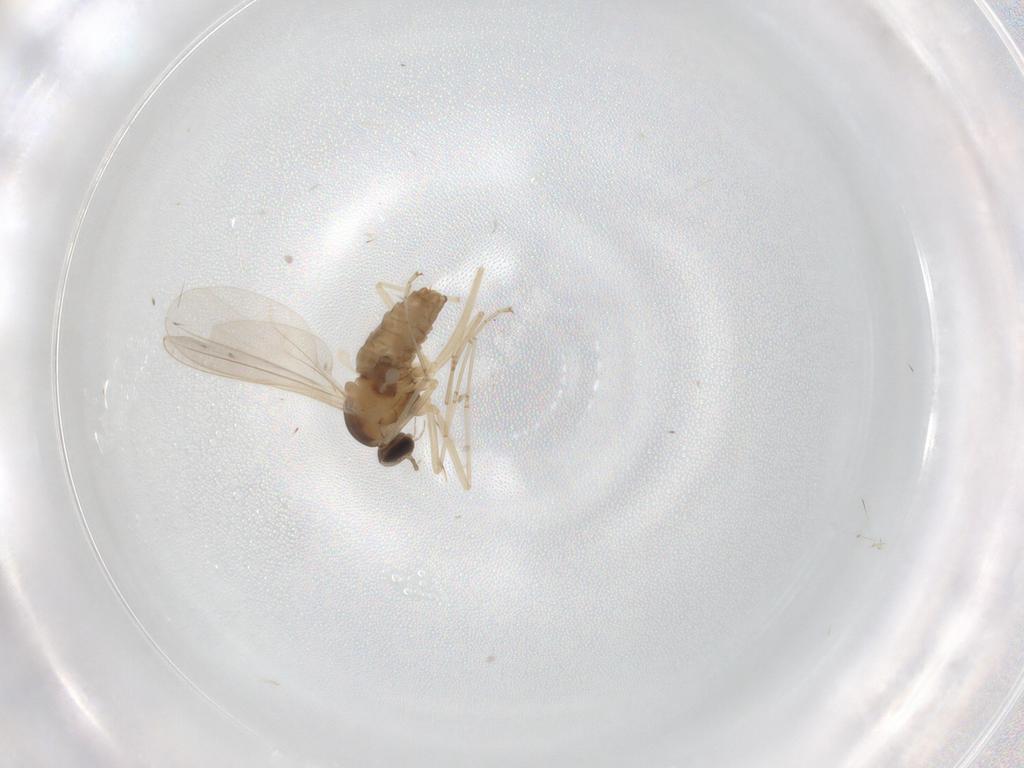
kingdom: Animalia
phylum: Arthropoda
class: Insecta
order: Diptera
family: Cecidomyiidae
